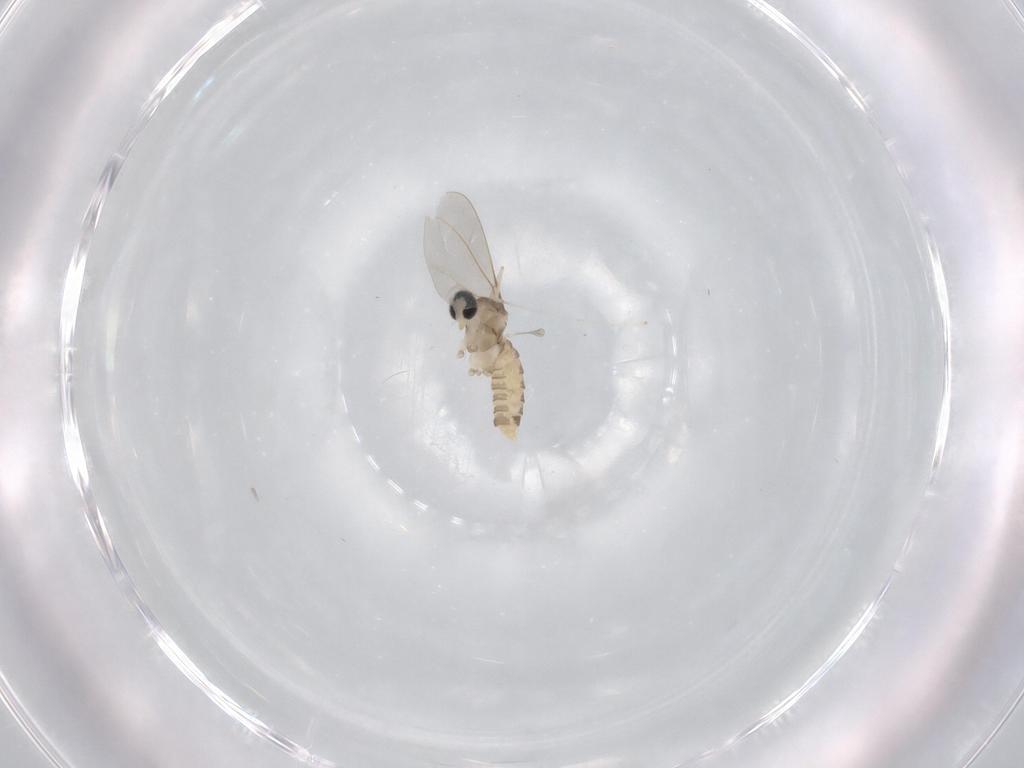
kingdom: Animalia
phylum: Arthropoda
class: Insecta
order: Diptera
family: Cecidomyiidae
